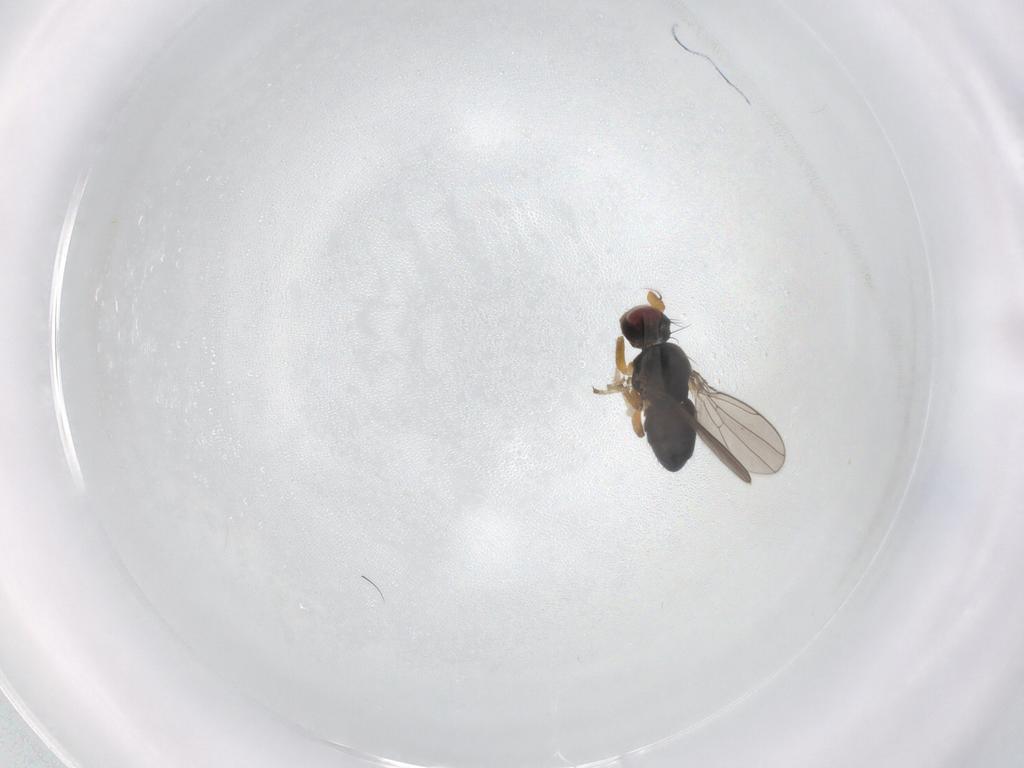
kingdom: Animalia
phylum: Arthropoda
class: Insecta
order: Diptera
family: Ephydridae
